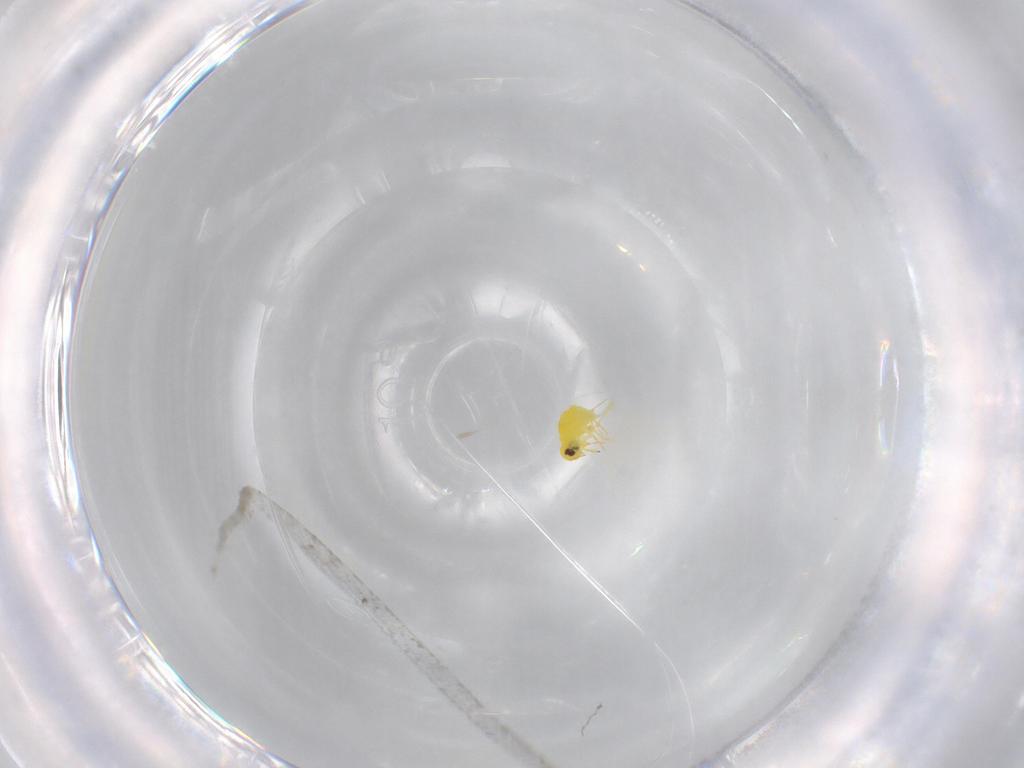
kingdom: Animalia
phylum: Arthropoda
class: Insecta
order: Hemiptera
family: Aleyrodidae
